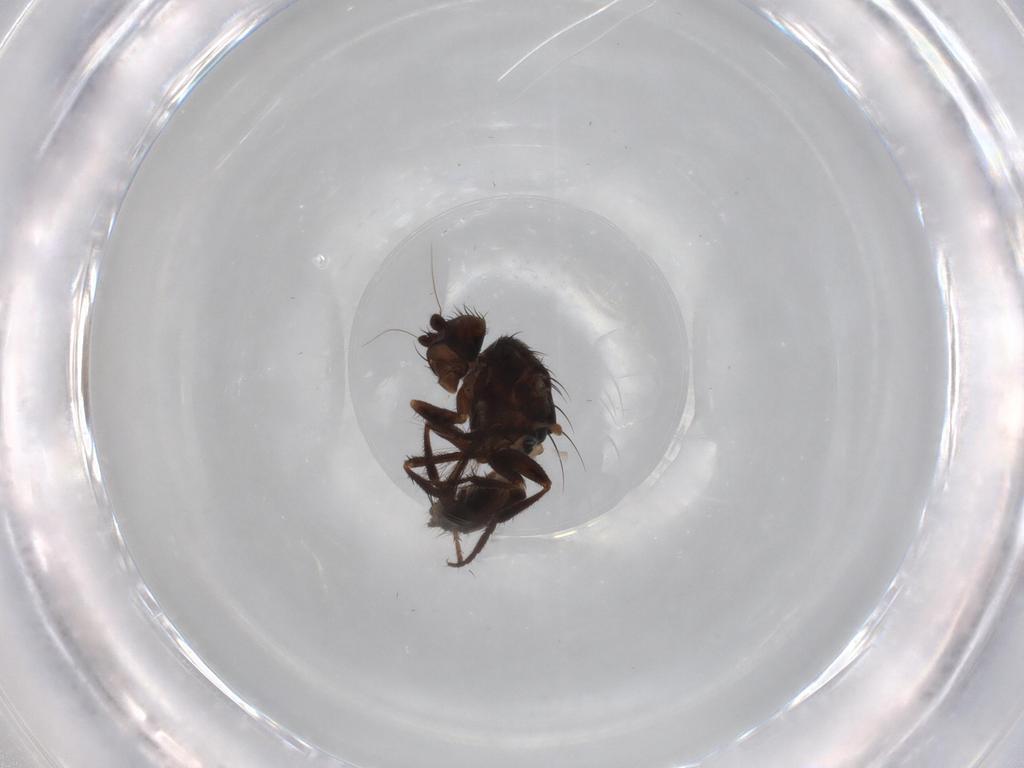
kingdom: Animalia
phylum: Arthropoda
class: Insecta
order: Diptera
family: Sphaeroceridae
